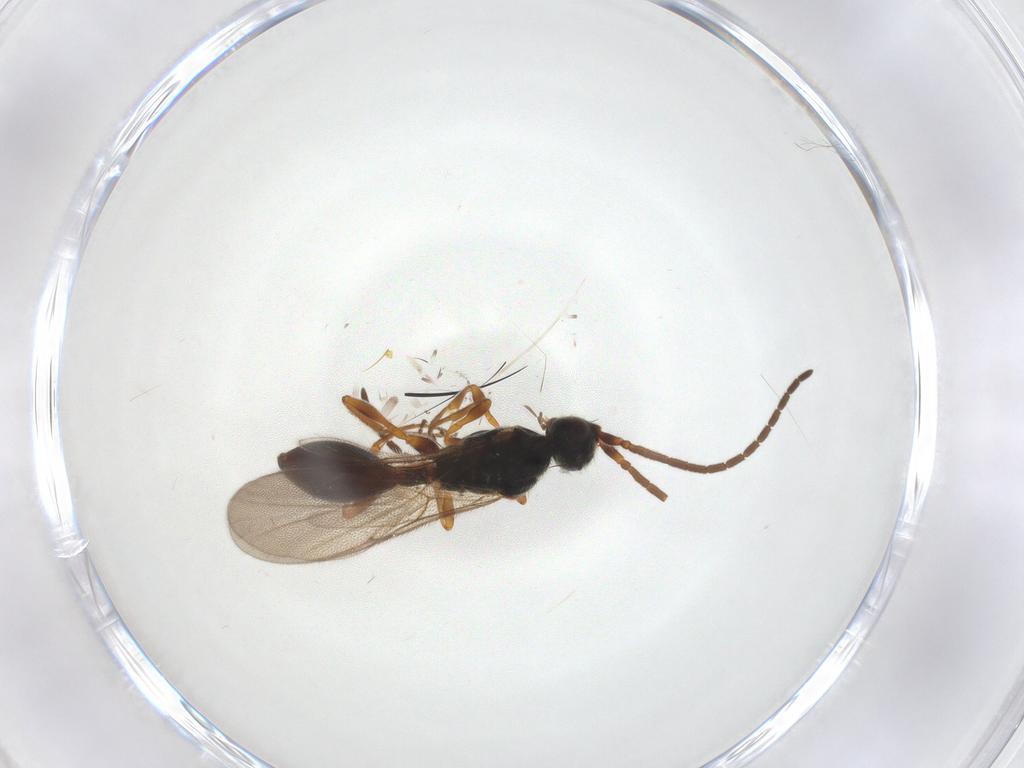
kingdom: Animalia
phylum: Arthropoda
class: Insecta
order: Hymenoptera
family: Diapriidae
